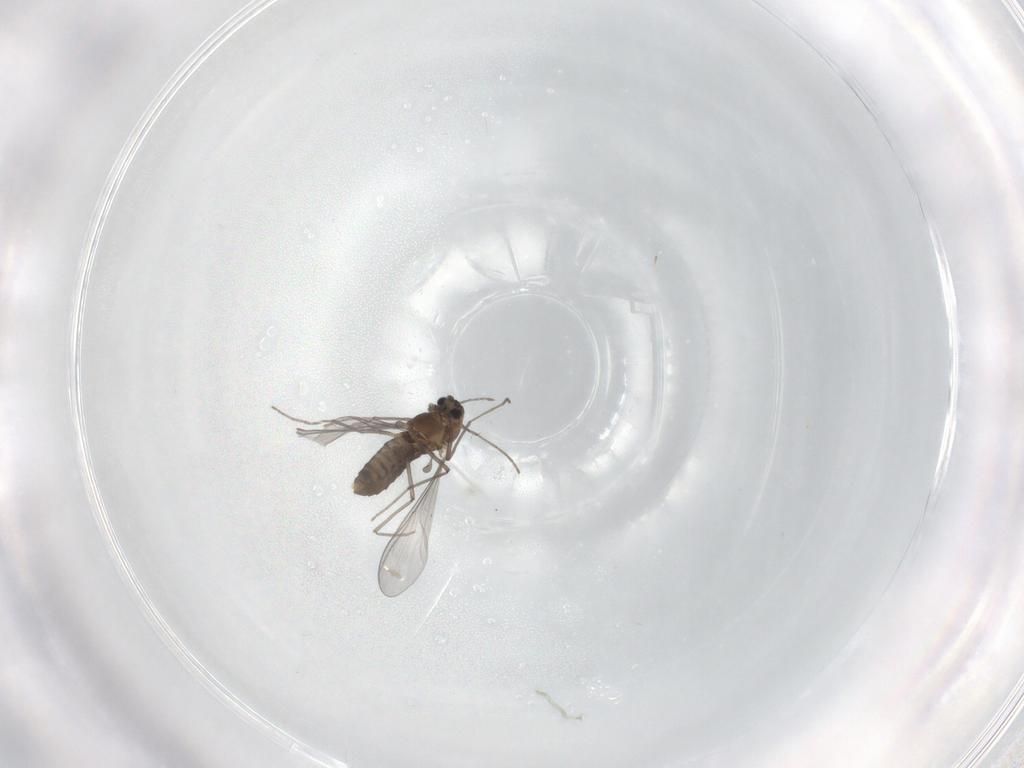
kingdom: Animalia
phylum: Arthropoda
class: Insecta
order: Diptera
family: Chironomidae
